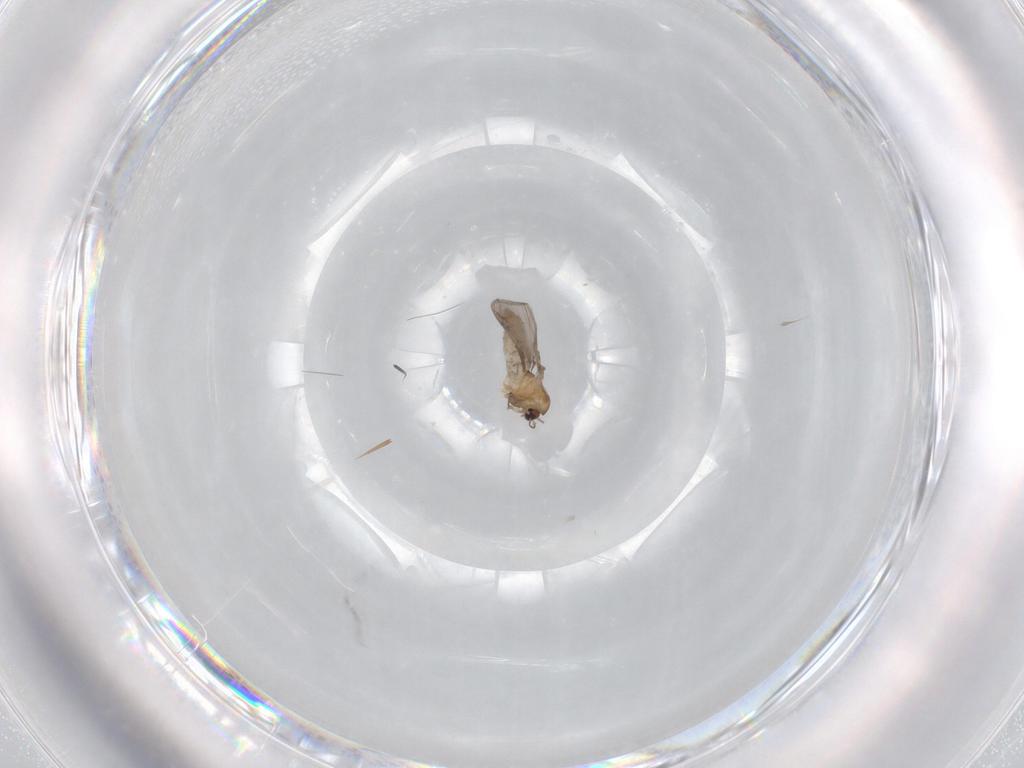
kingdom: Animalia
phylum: Arthropoda
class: Insecta
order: Diptera
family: Chironomidae
